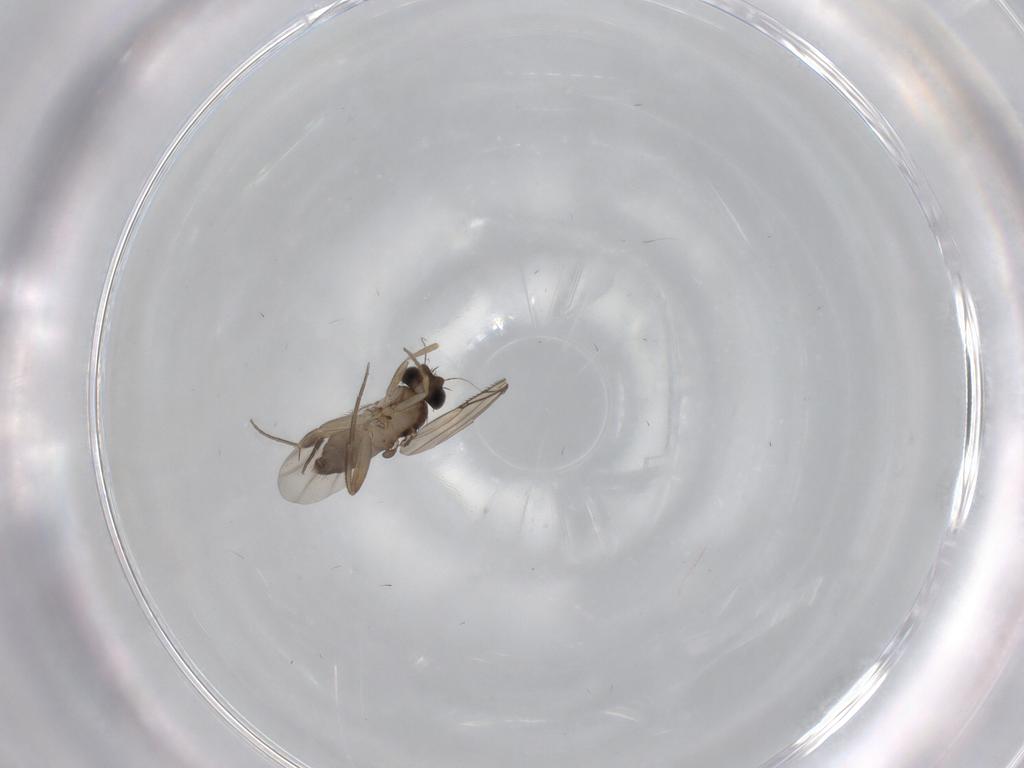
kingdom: Animalia
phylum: Arthropoda
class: Insecta
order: Diptera
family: Phoridae
